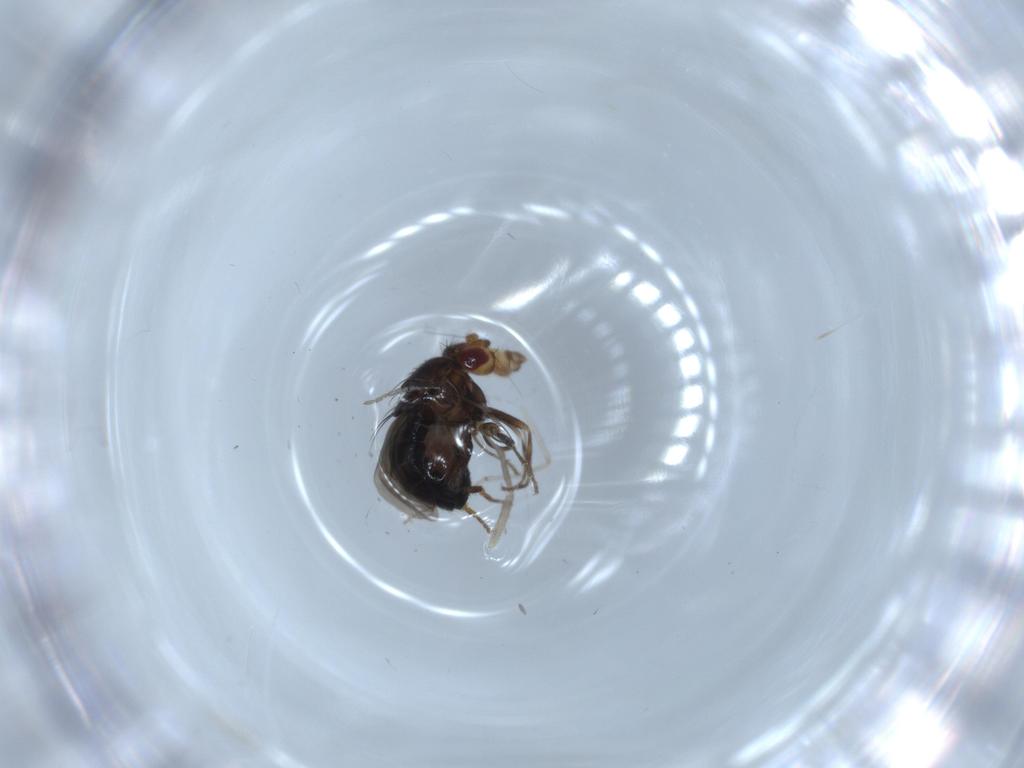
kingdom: Animalia
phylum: Arthropoda
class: Insecta
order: Diptera
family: Chironomidae
